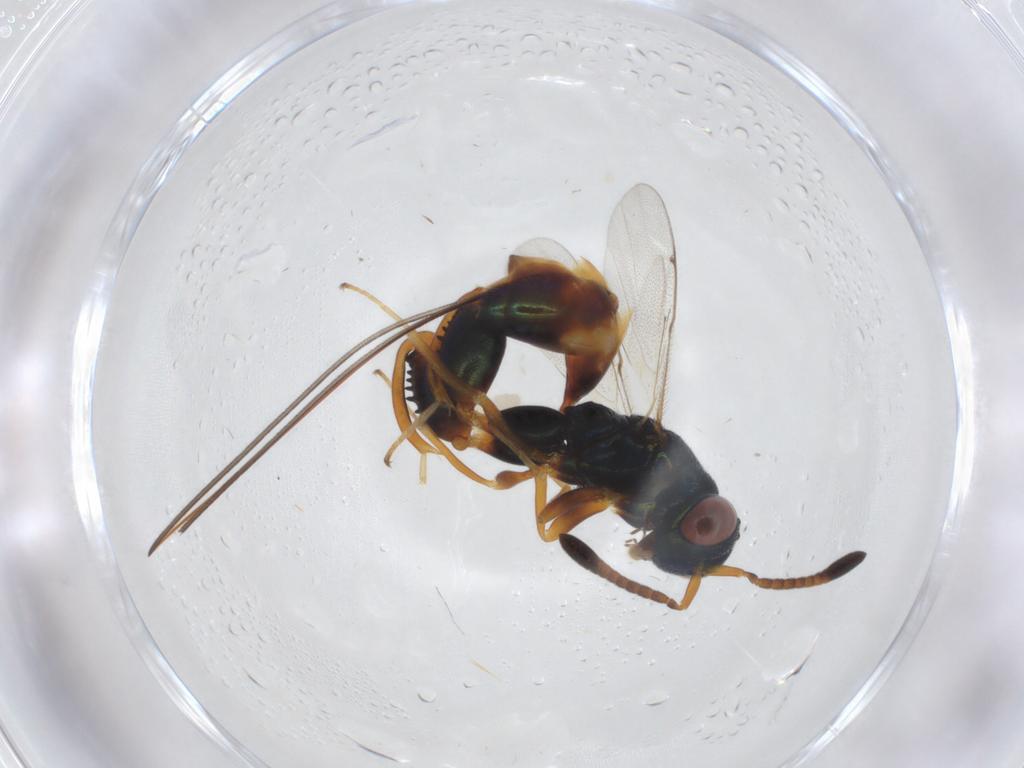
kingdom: Animalia
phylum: Arthropoda
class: Insecta
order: Hymenoptera
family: Torymidae
